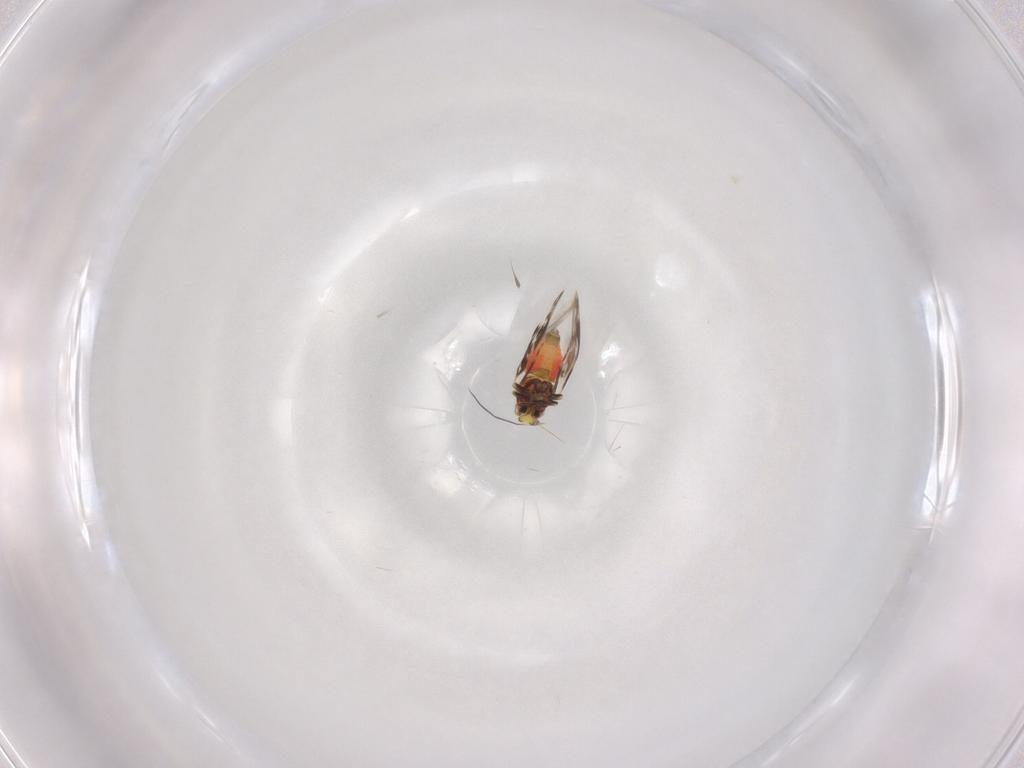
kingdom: Animalia
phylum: Arthropoda
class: Insecta
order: Hemiptera
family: Aleyrodidae
